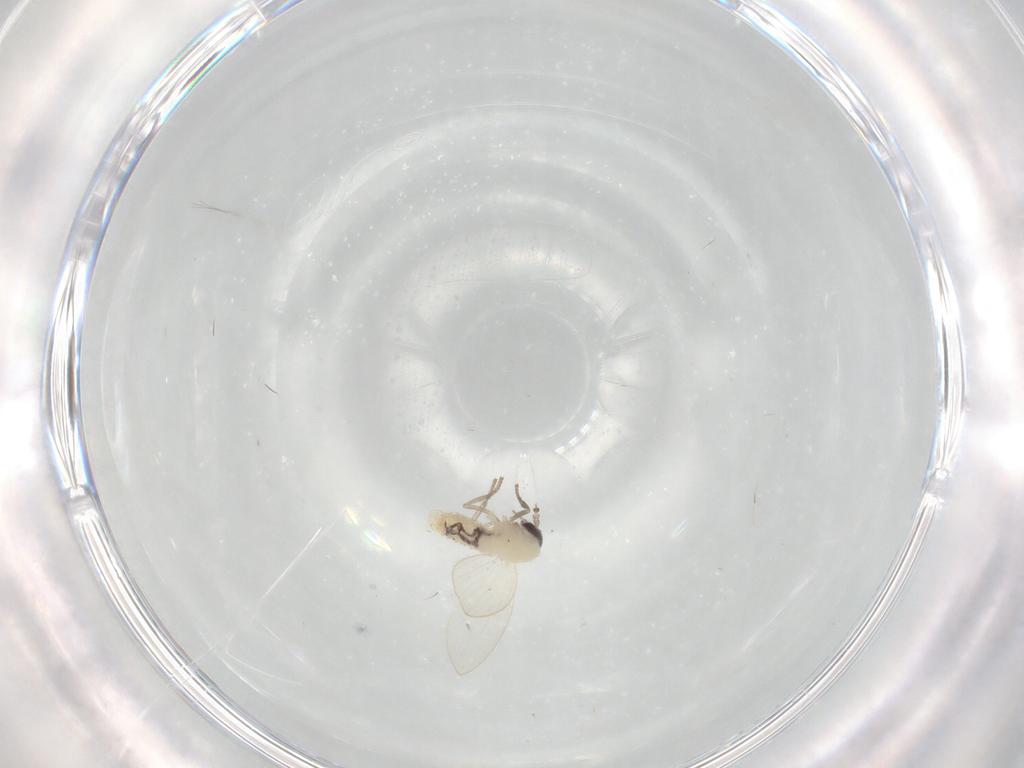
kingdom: Animalia
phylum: Arthropoda
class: Insecta
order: Diptera
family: Psychodidae
